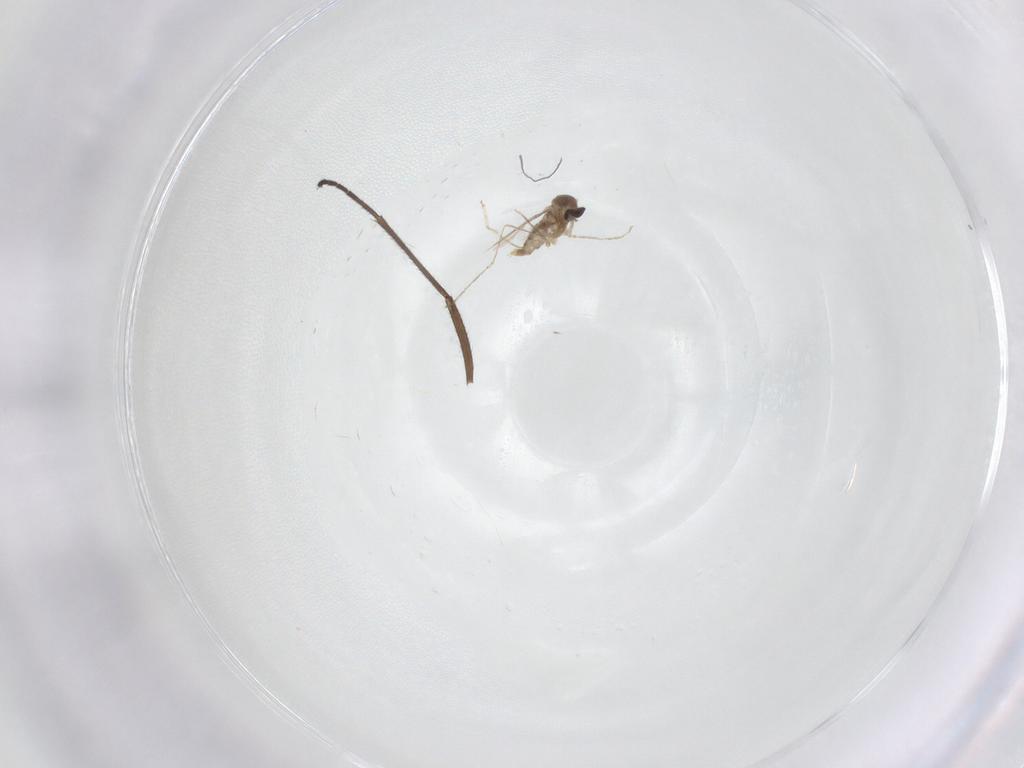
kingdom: Animalia
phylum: Arthropoda
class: Insecta
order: Diptera
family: Cecidomyiidae
